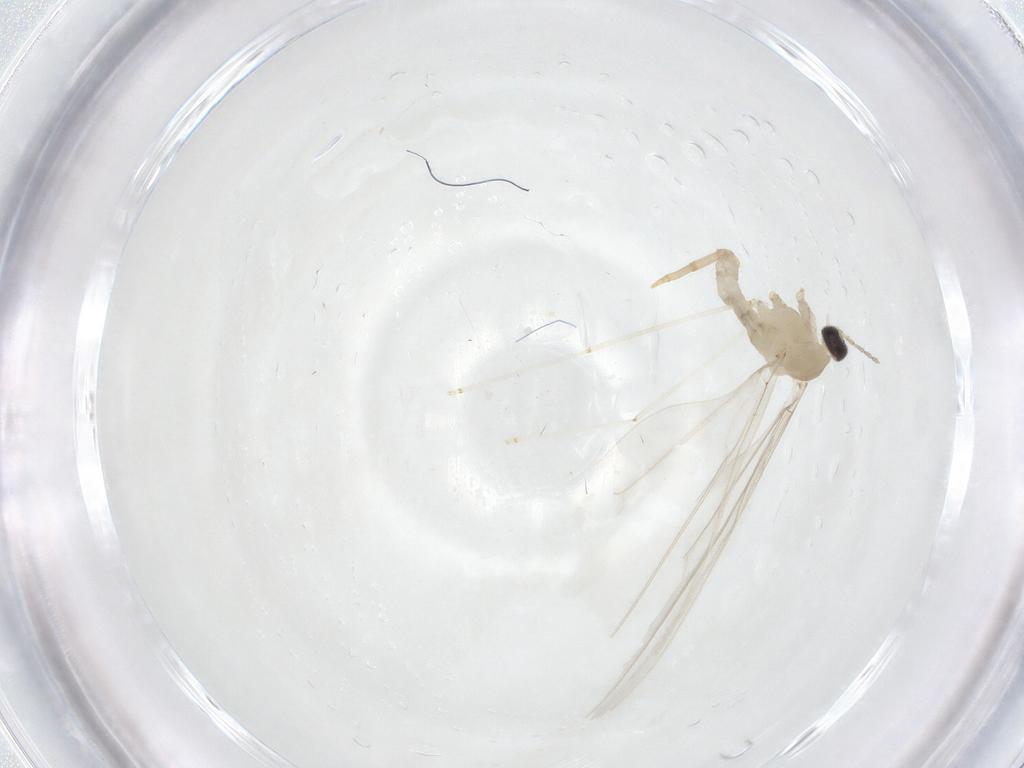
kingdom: Animalia
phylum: Arthropoda
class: Insecta
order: Diptera
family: Cecidomyiidae
